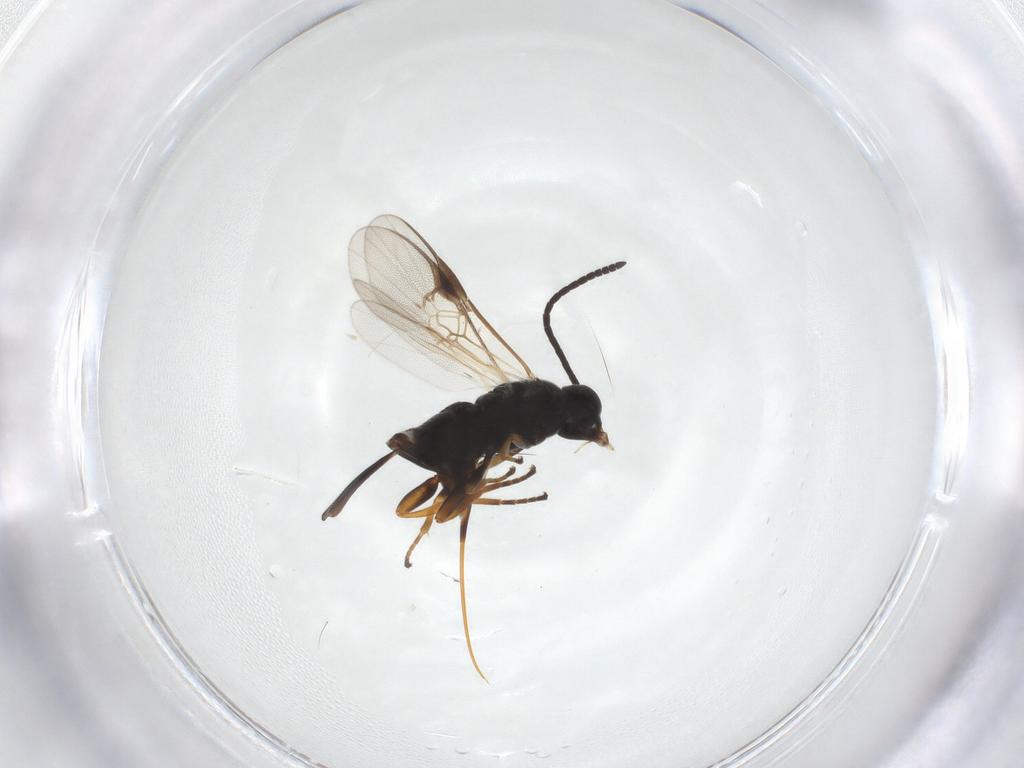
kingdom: Animalia
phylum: Arthropoda
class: Insecta
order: Hymenoptera
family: Braconidae
